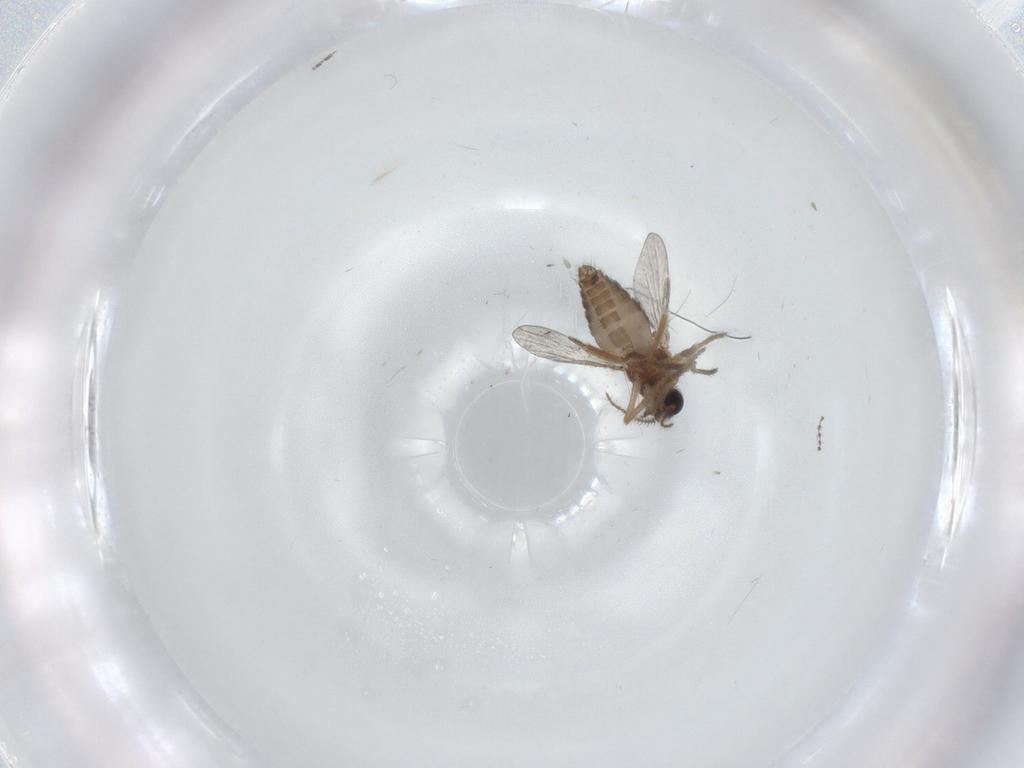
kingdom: Animalia
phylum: Arthropoda
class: Insecta
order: Diptera
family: Ceratopogonidae
